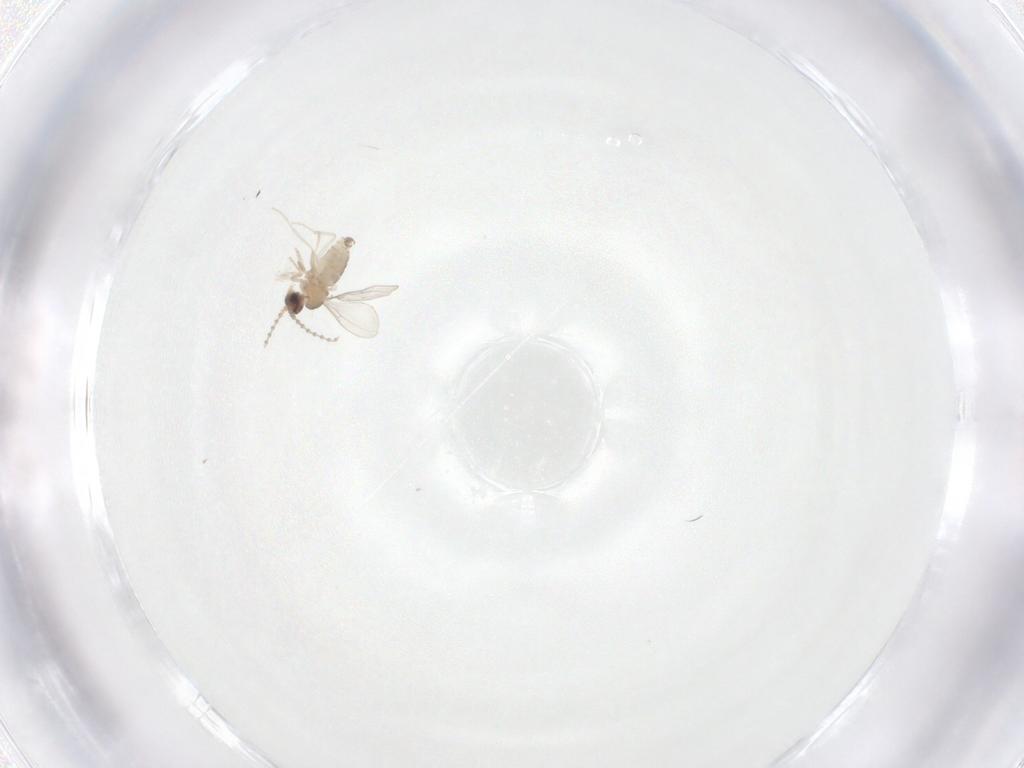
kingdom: Animalia
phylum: Arthropoda
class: Insecta
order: Diptera
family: Cecidomyiidae
